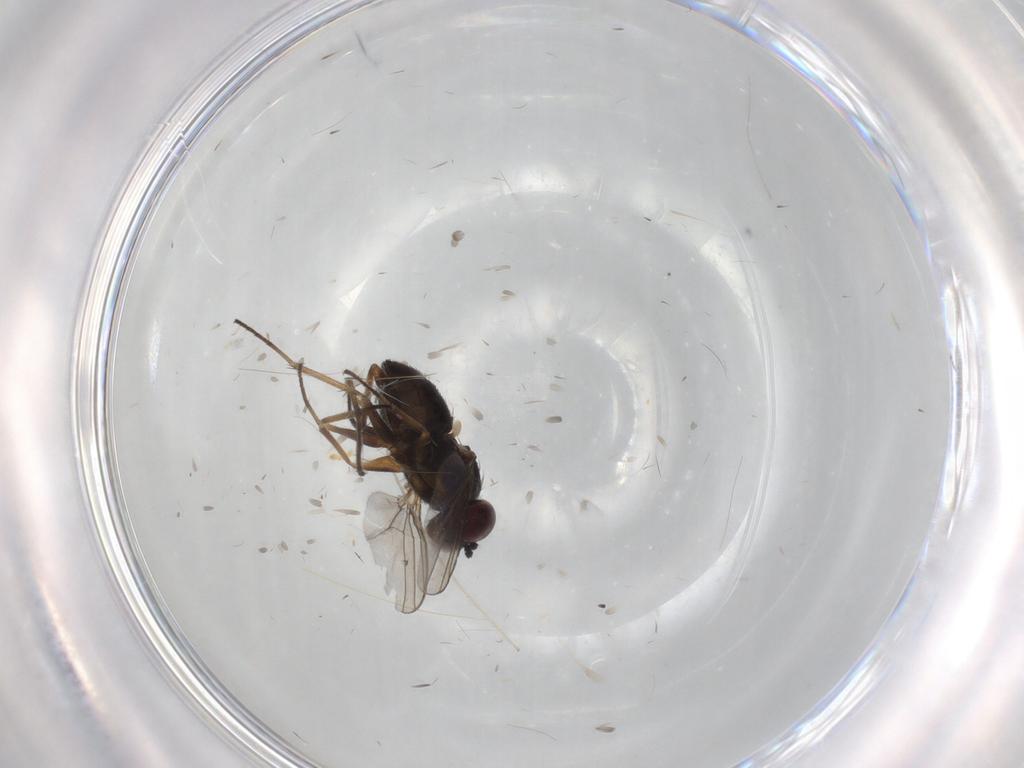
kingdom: Animalia
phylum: Arthropoda
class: Insecta
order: Diptera
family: Dolichopodidae
